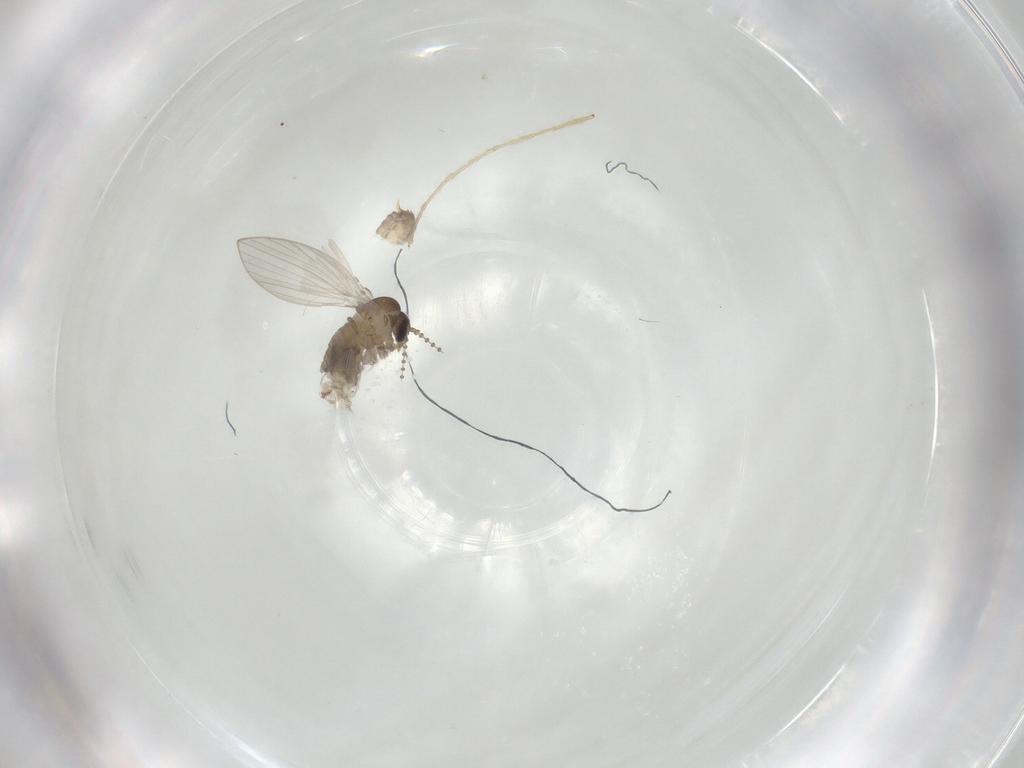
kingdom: Animalia
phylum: Arthropoda
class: Insecta
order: Diptera
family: Psychodidae
